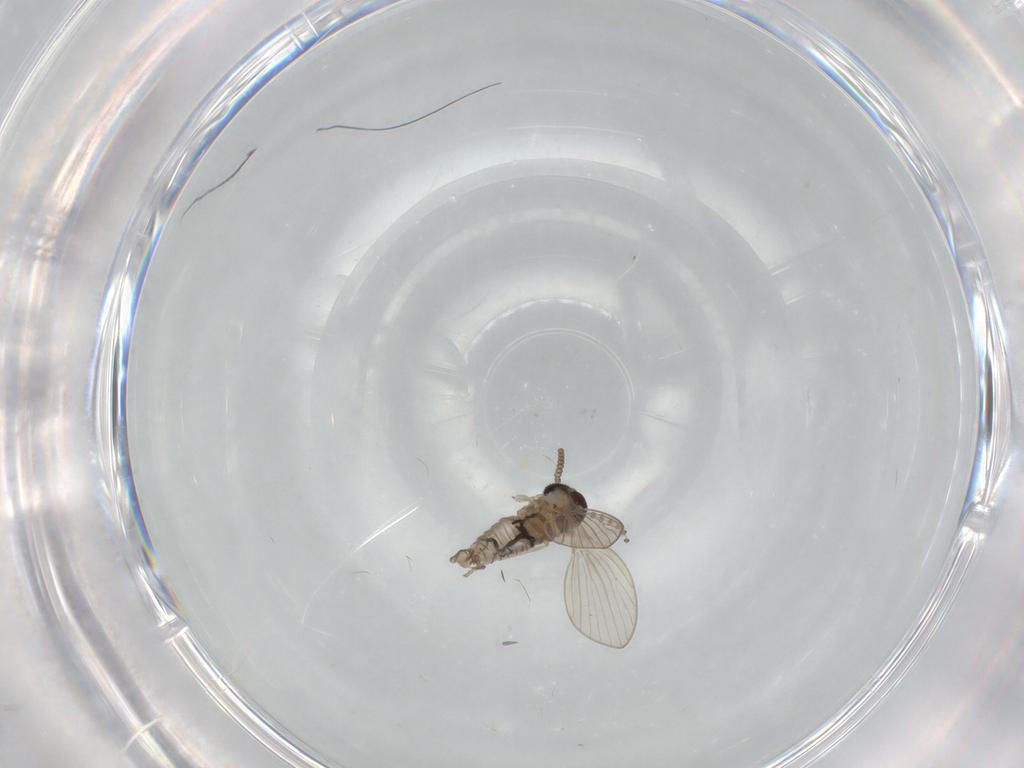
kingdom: Animalia
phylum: Arthropoda
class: Insecta
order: Diptera
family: Psychodidae
